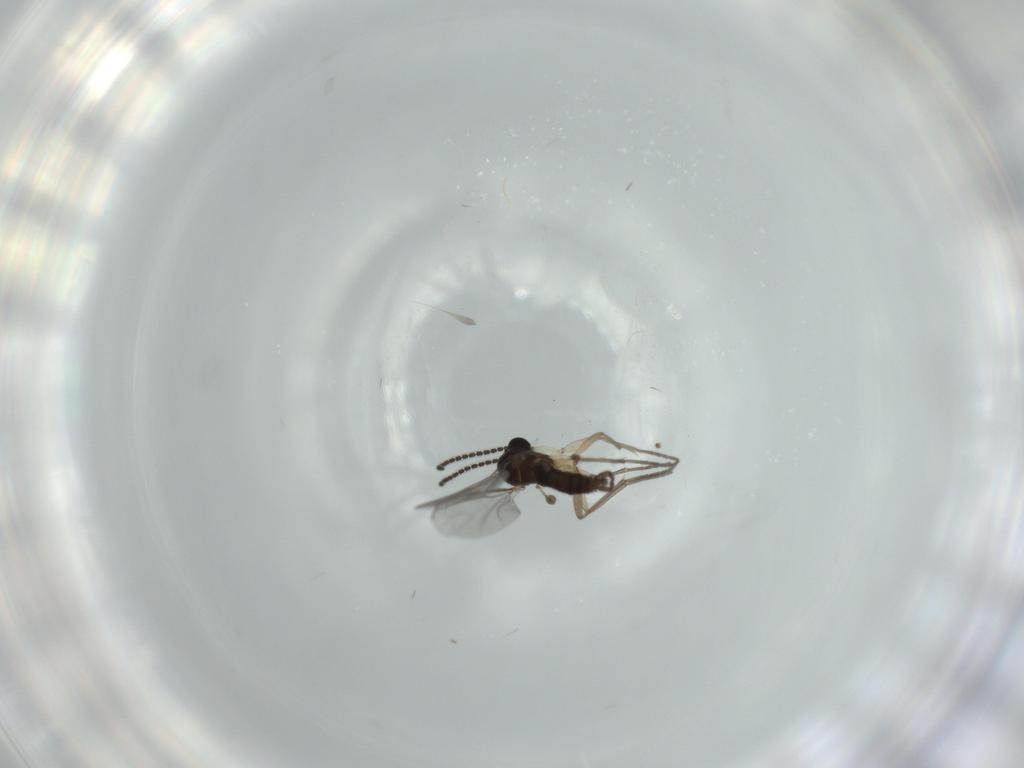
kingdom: Animalia
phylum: Arthropoda
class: Insecta
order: Diptera
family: Sciaridae
